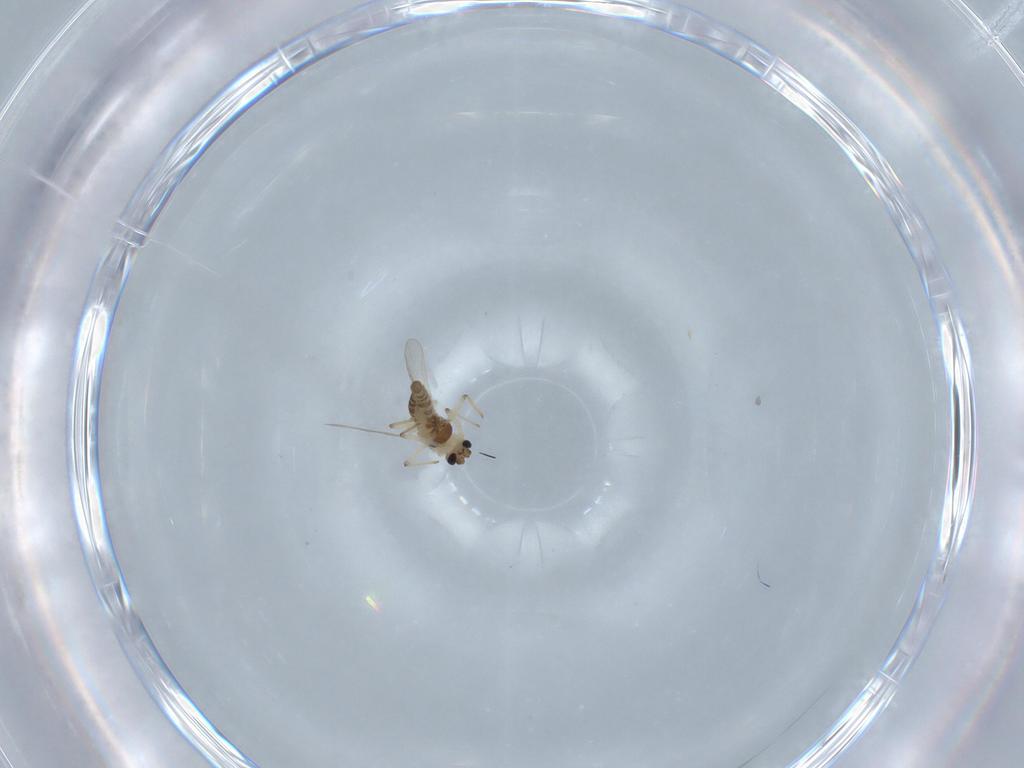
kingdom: Animalia
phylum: Arthropoda
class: Insecta
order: Diptera
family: Chironomidae
